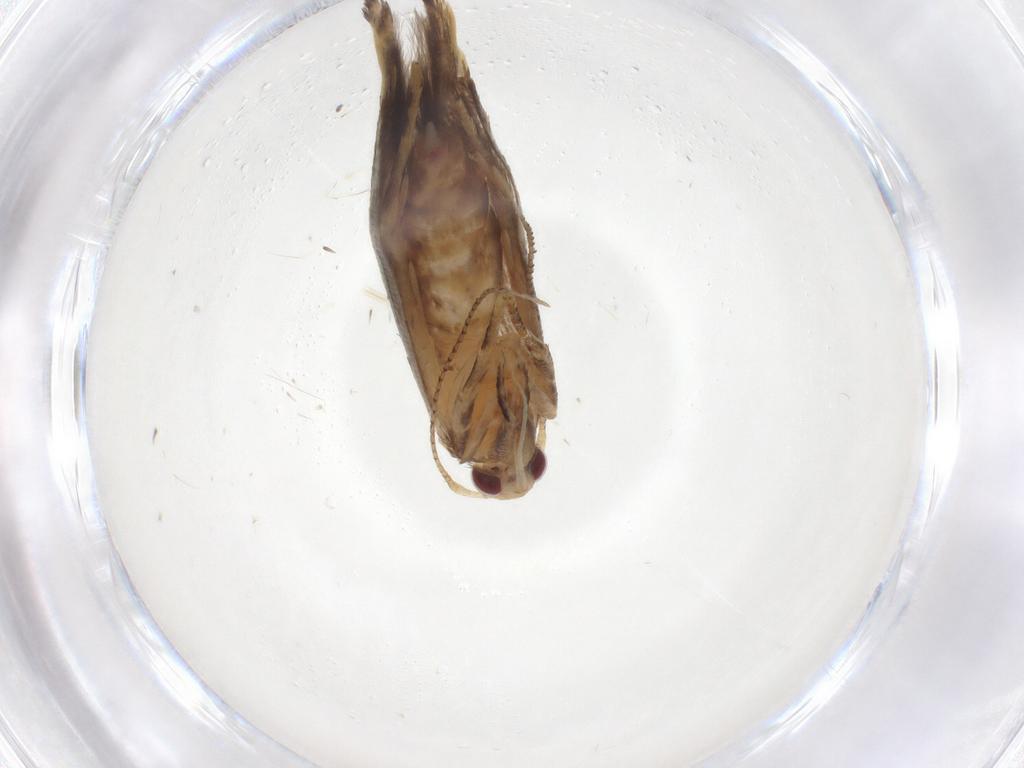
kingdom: Animalia
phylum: Arthropoda
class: Insecta
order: Lepidoptera
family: Cosmopterigidae
